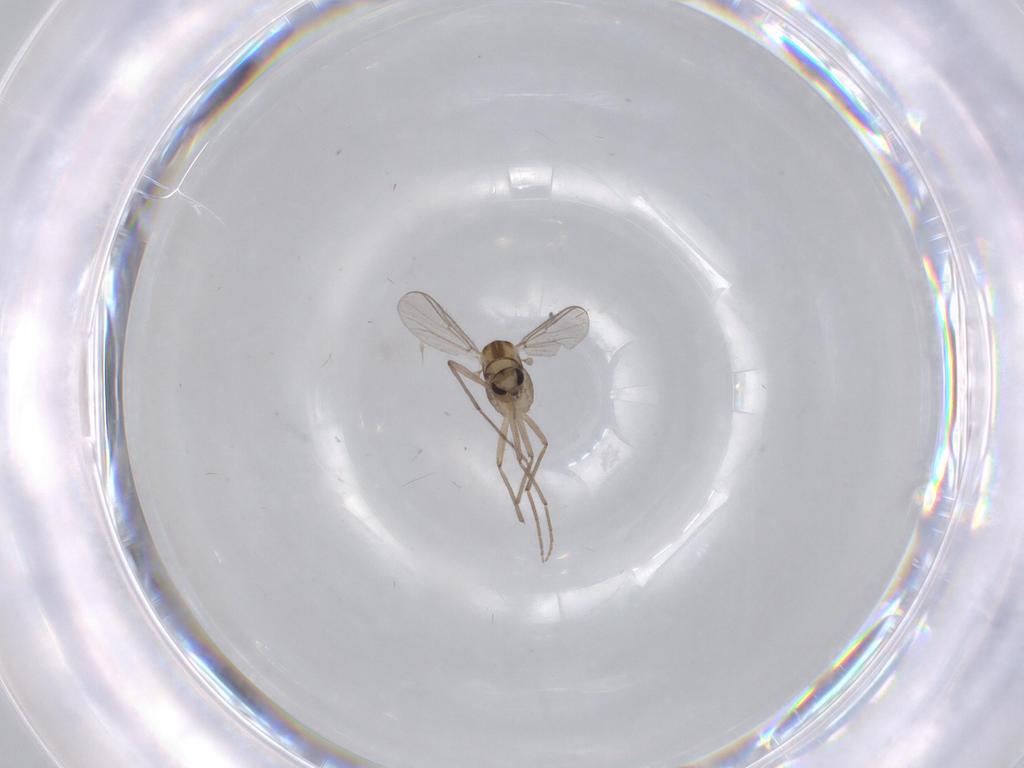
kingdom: Animalia
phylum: Arthropoda
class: Insecta
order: Diptera
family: Chironomidae
